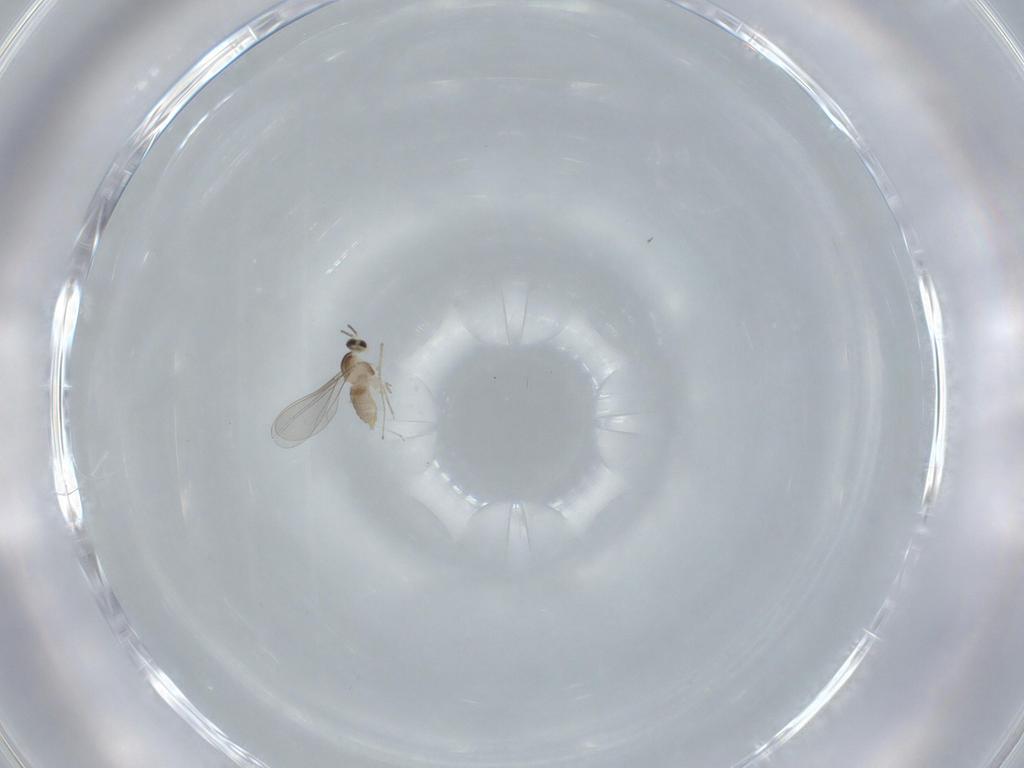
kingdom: Animalia
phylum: Arthropoda
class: Insecta
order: Diptera
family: Cecidomyiidae
